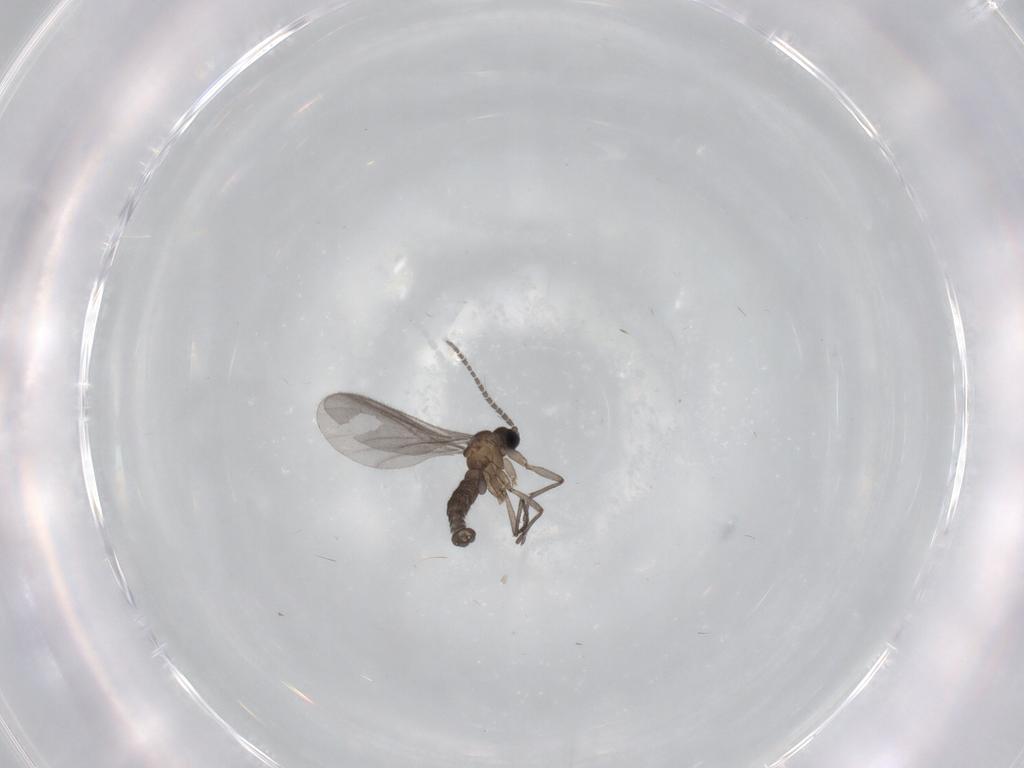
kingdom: Animalia
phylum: Arthropoda
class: Insecta
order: Diptera
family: Sciaridae
